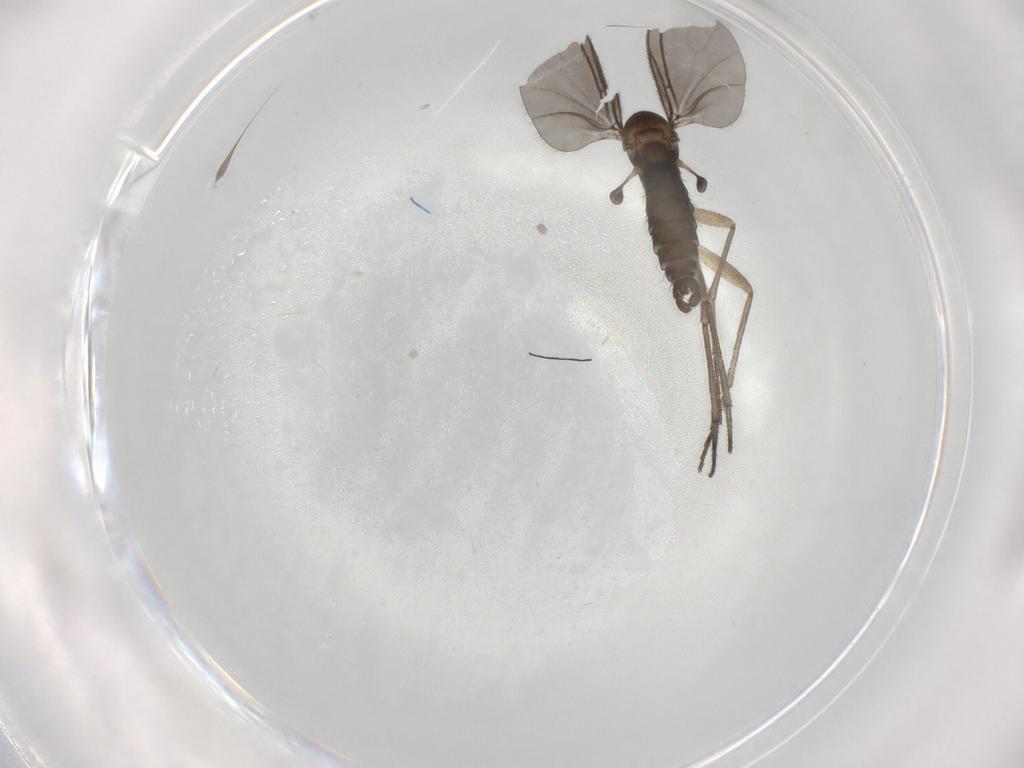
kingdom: Animalia
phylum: Arthropoda
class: Insecta
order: Diptera
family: Sciaridae
